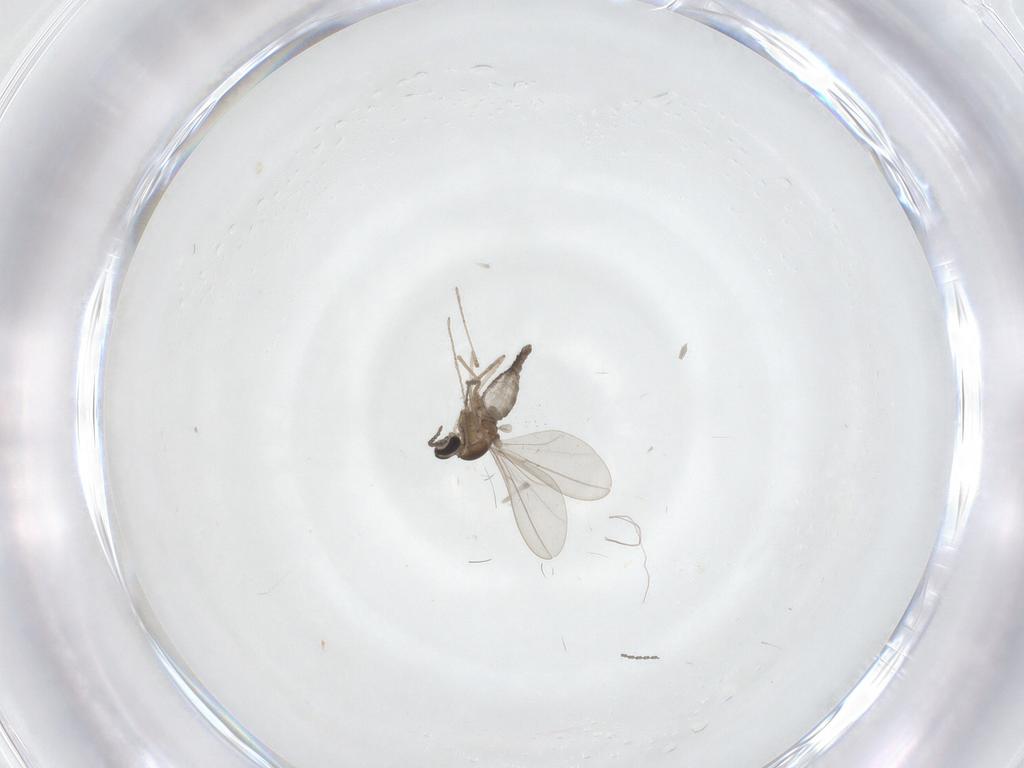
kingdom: Animalia
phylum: Arthropoda
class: Insecta
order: Diptera
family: Cecidomyiidae
